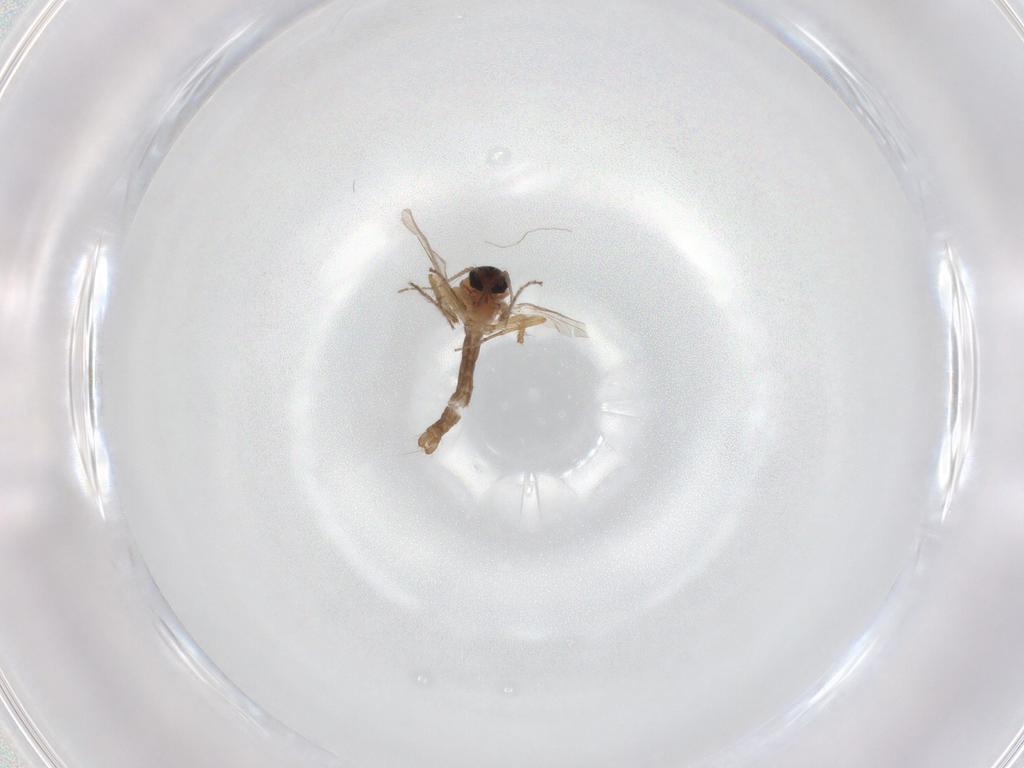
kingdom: Animalia
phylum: Arthropoda
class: Insecta
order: Diptera
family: Ceratopogonidae
